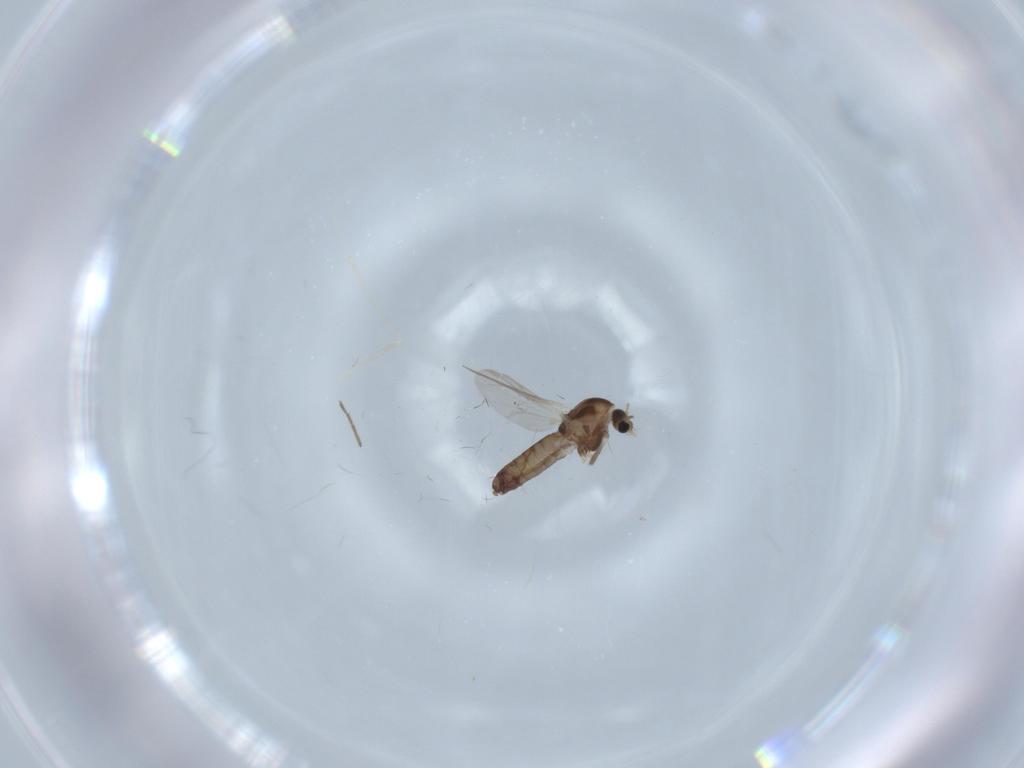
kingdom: Animalia
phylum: Arthropoda
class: Insecta
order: Diptera
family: Chironomidae
